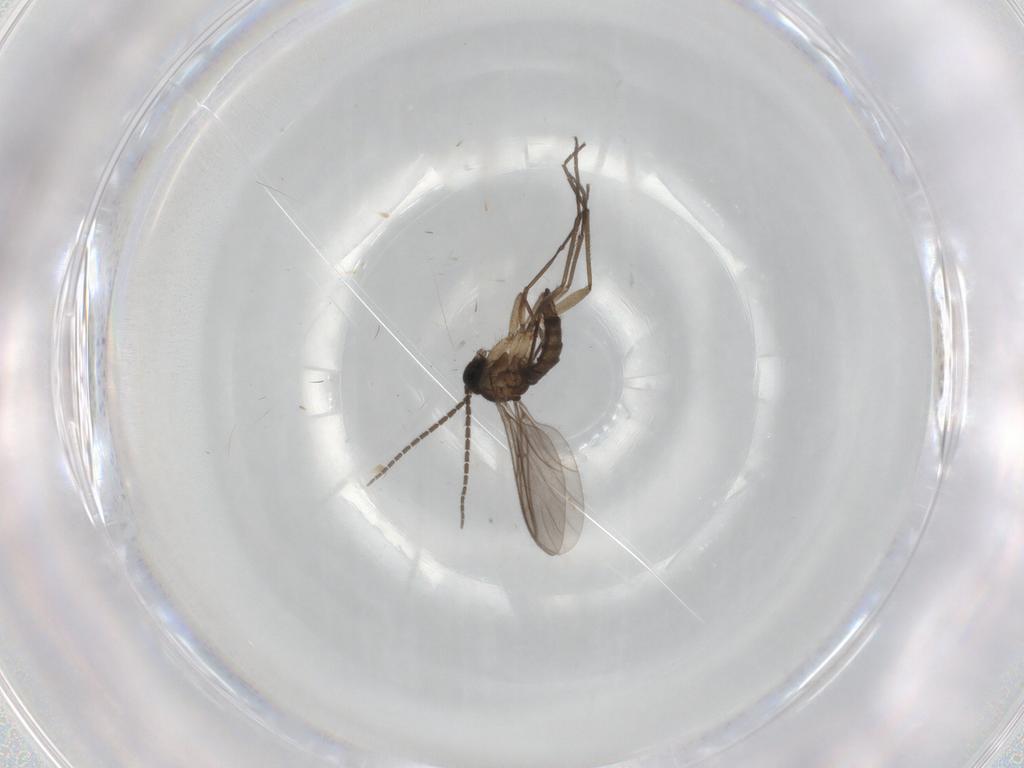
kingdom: Animalia
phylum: Arthropoda
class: Insecta
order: Diptera
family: Sciaridae
